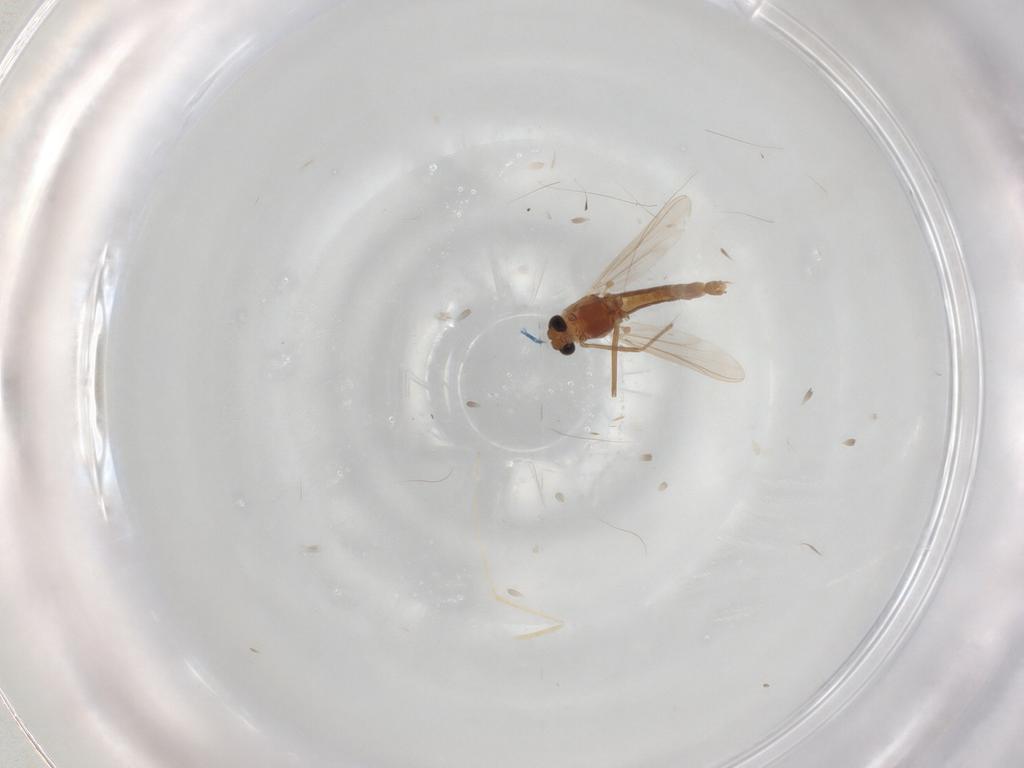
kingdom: Animalia
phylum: Arthropoda
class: Insecta
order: Diptera
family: Chironomidae
